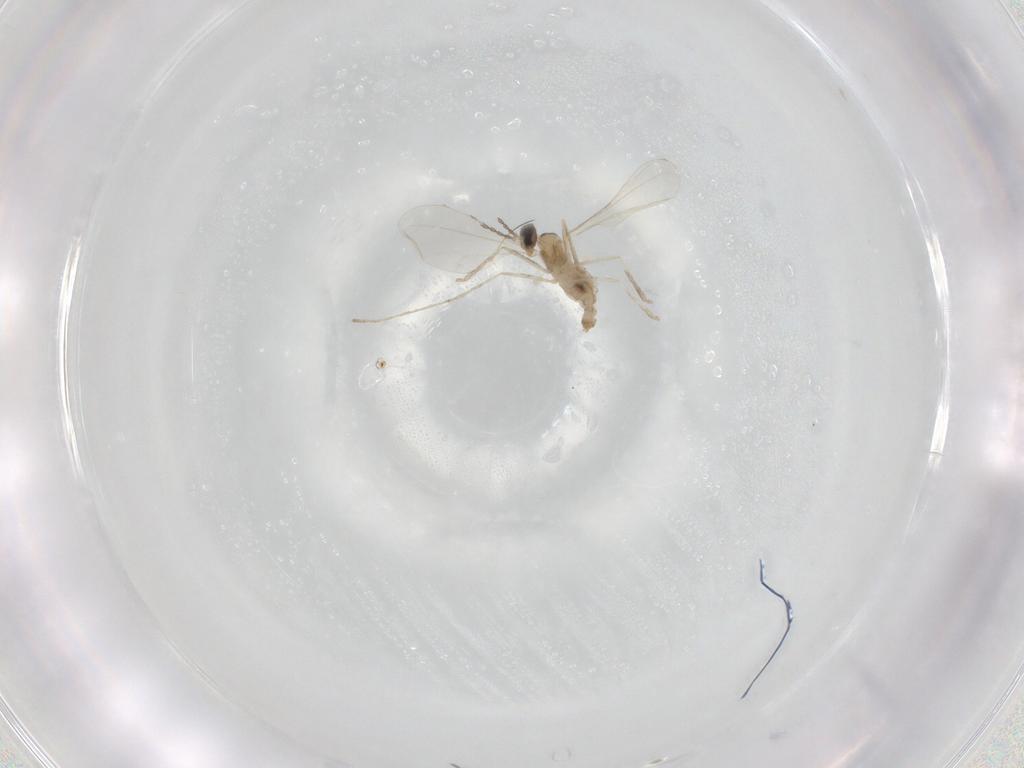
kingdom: Animalia
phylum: Arthropoda
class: Insecta
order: Diptera
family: Cecidomyiidae
